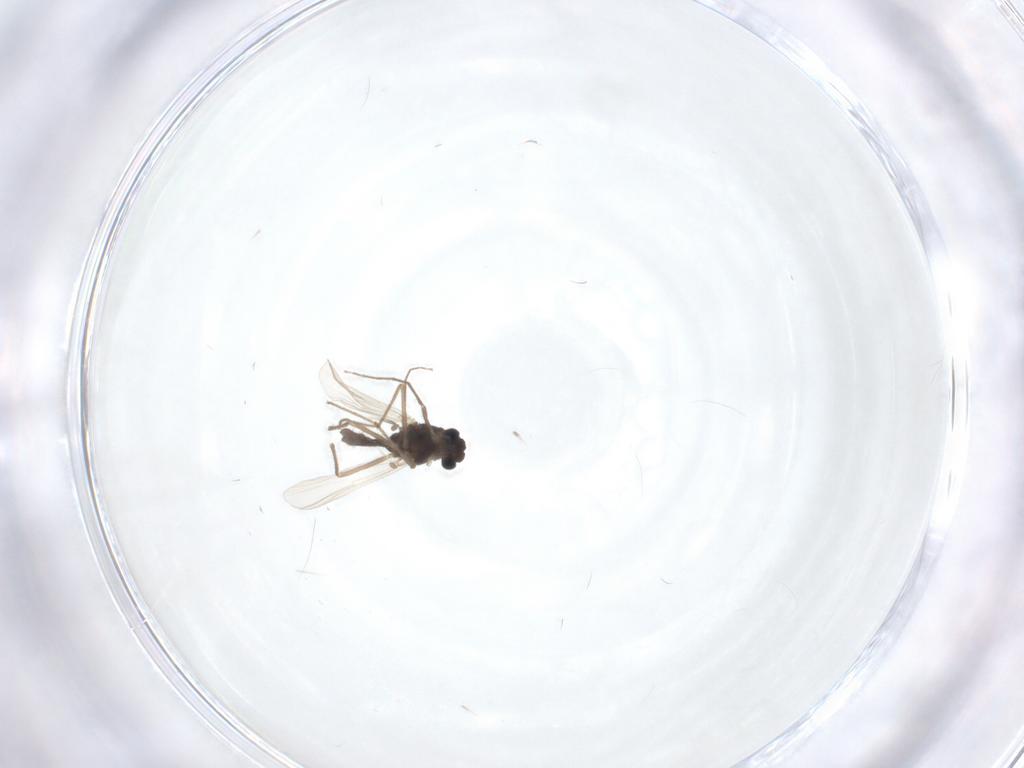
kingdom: Animalia
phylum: Arthropoda
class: Insecta
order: Diptera
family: Chironomidae
